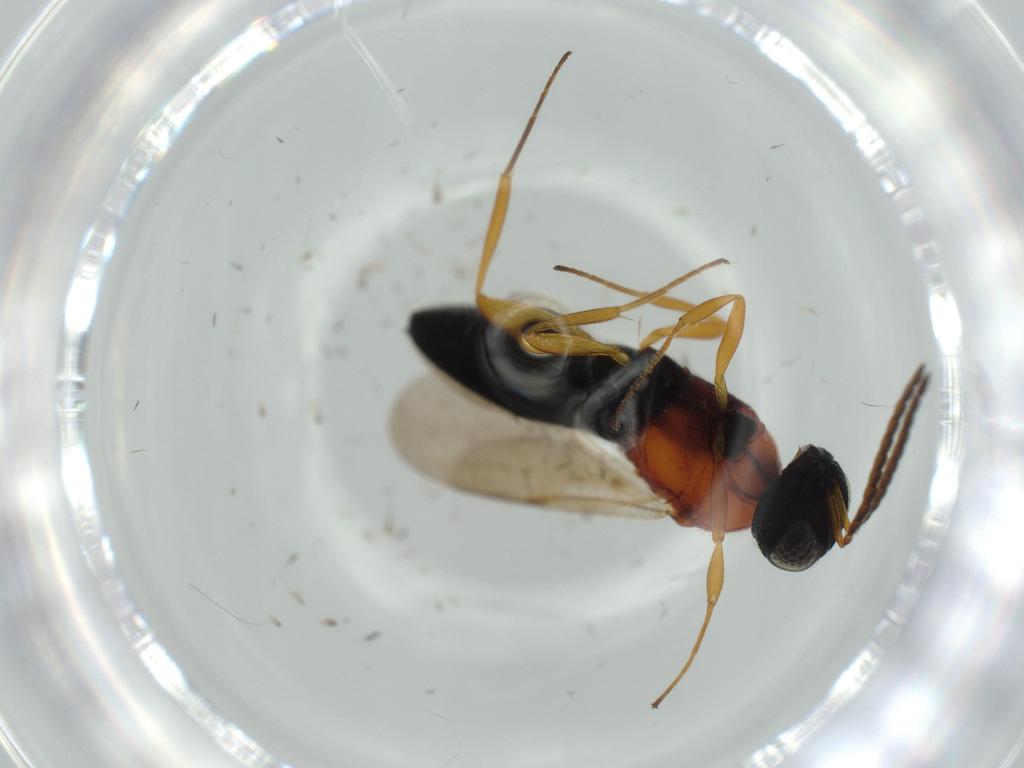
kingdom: Animalia
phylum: Arthropoda
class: Insecta
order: Hymenoptera
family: Scelionidae
